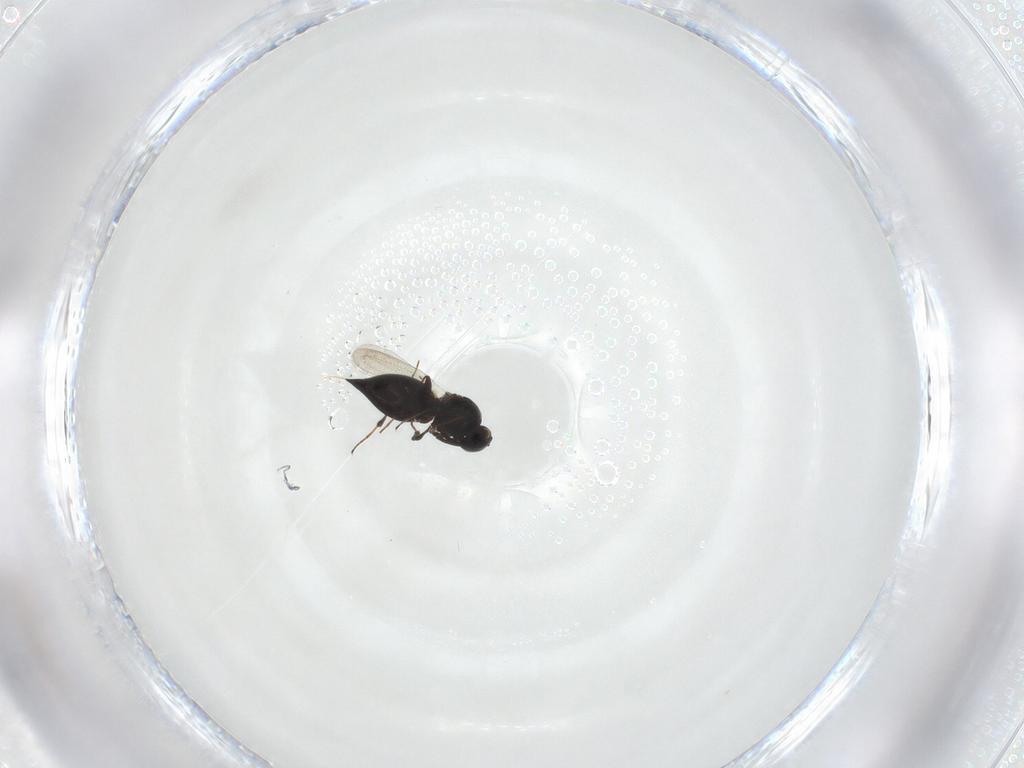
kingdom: Animalia
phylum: Arthropoda
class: Insecta
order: Hymenoptera
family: Platygastridae
